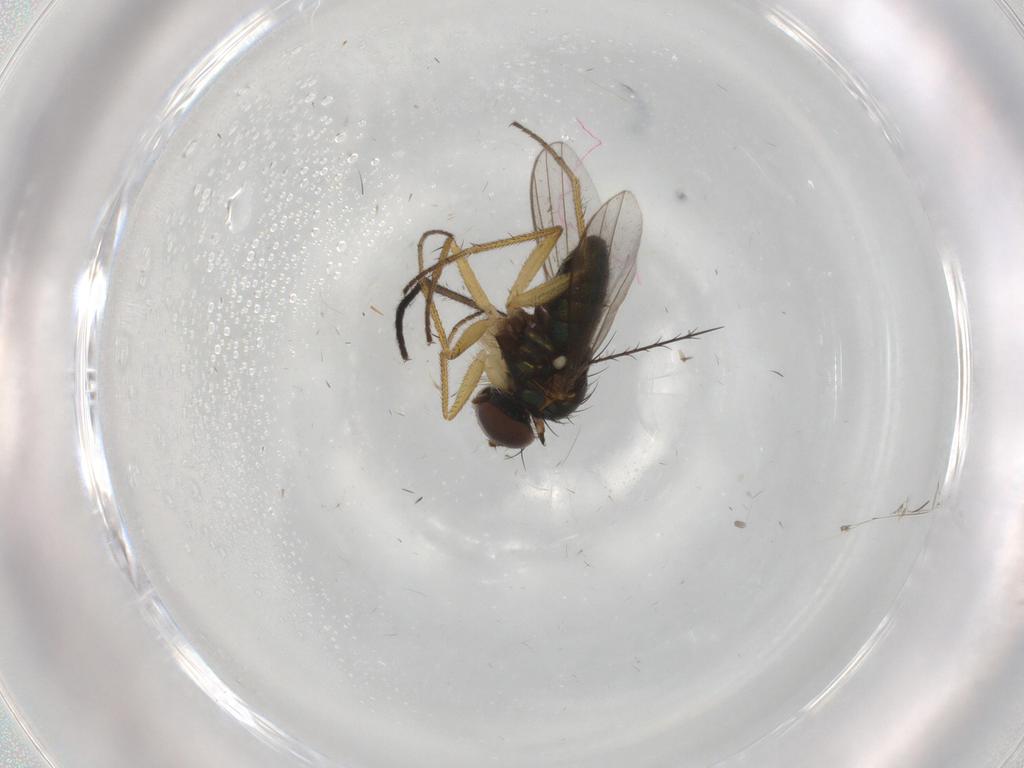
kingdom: Animalia
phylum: Arthropoda
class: Insecta
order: Diptera
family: Sciaridae
